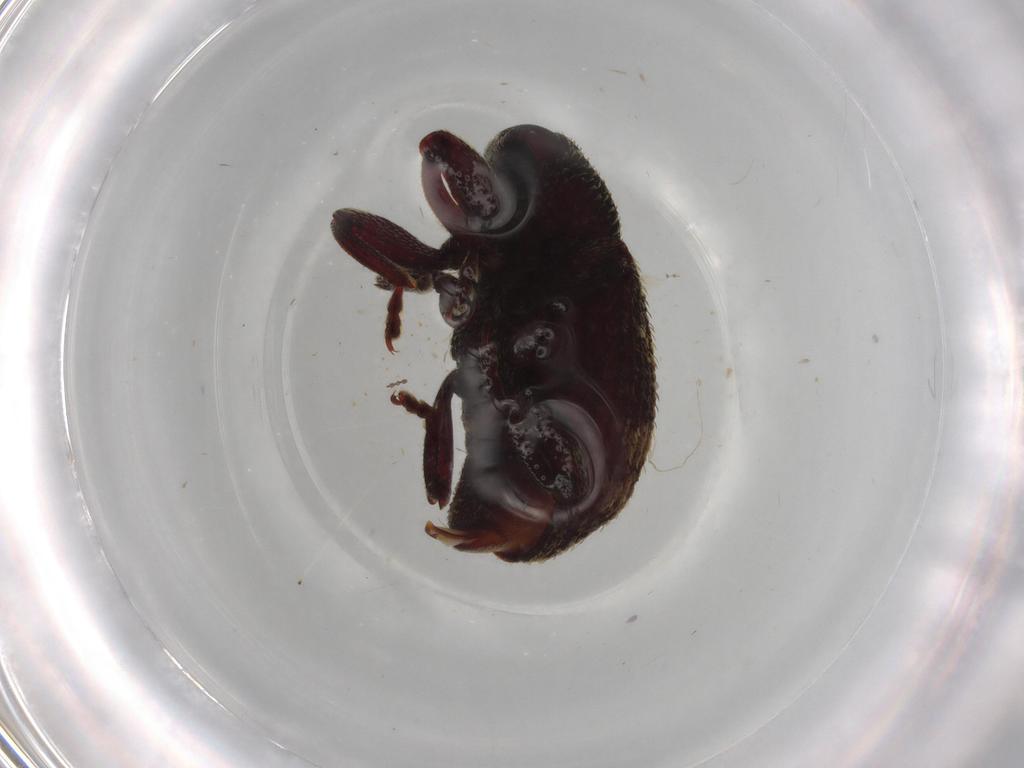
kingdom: Animalia
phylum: Arthropoda
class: Insecta
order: Coleoptera
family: Curculionidae
